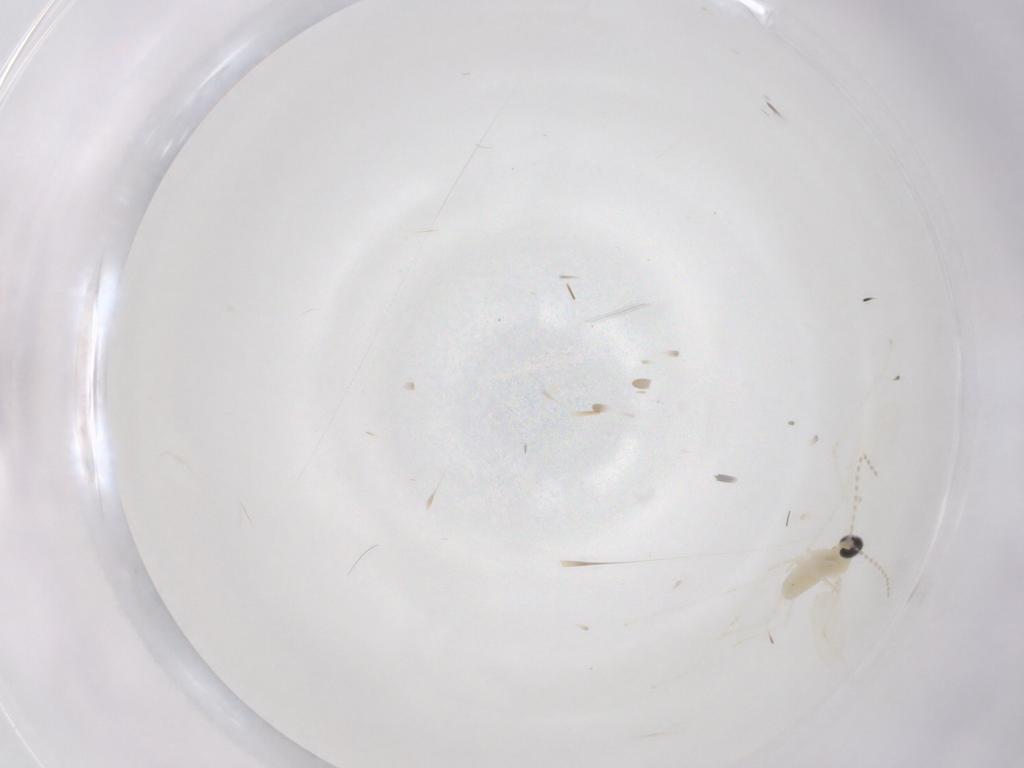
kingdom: Animalia
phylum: Arthropoda
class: Insecta
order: Diptera
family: Cecidomyiidae
